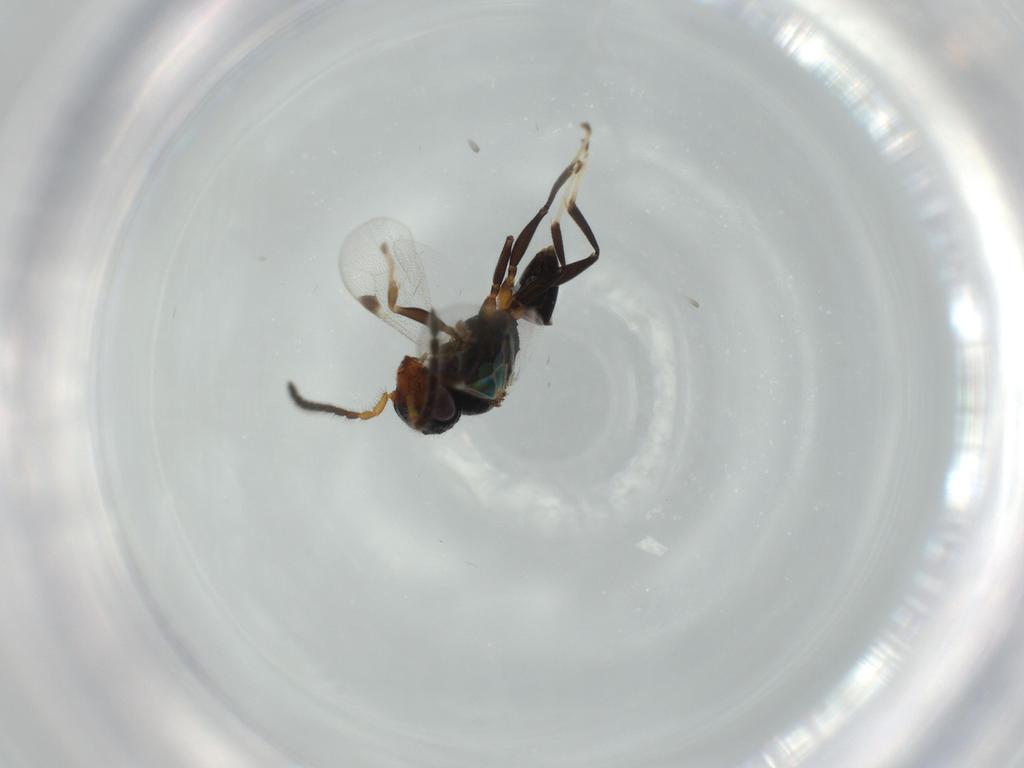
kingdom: Animalia
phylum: Arthropoda
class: Insecta
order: Hymenoptera
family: Dryinidae
